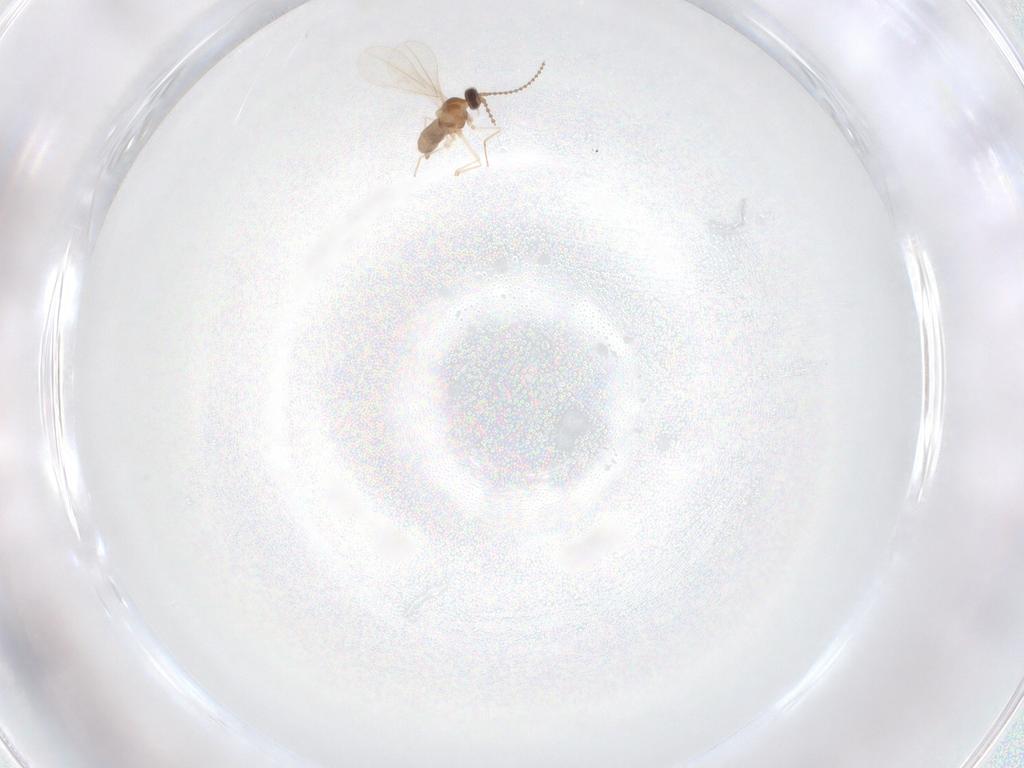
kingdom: Animalia
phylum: Arthropoda
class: Insecta
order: Diptera
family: Cecidomyiidae
